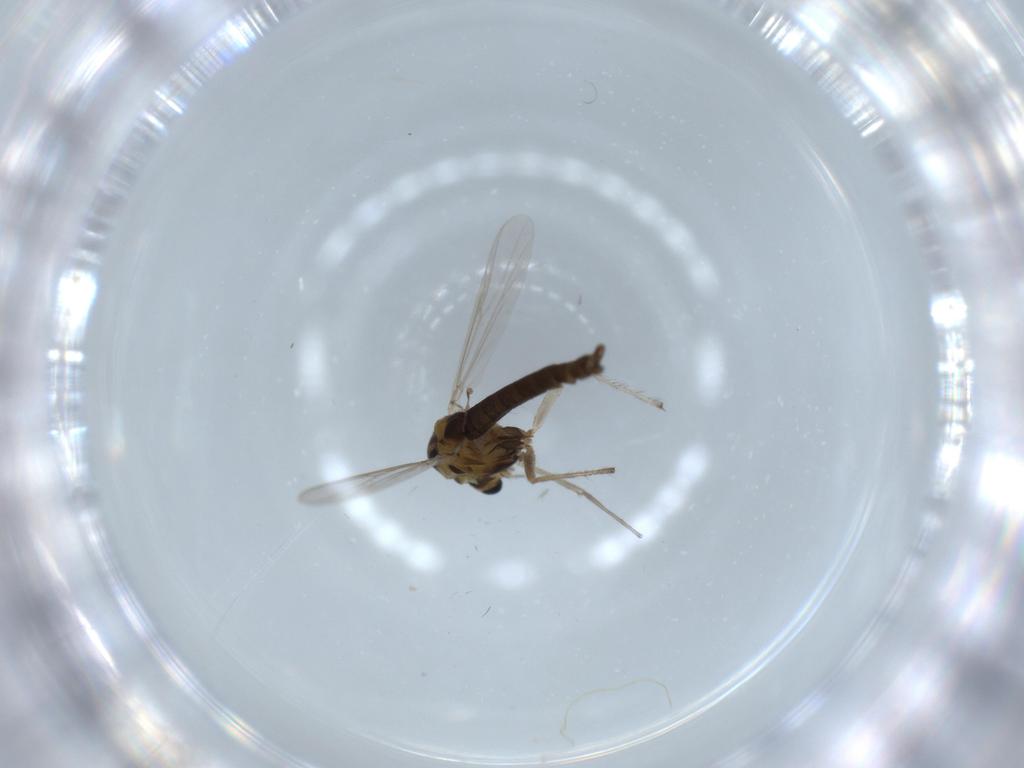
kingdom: Animalia
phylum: Arthropoda
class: Insecta
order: Diptera
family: Chironomidae
